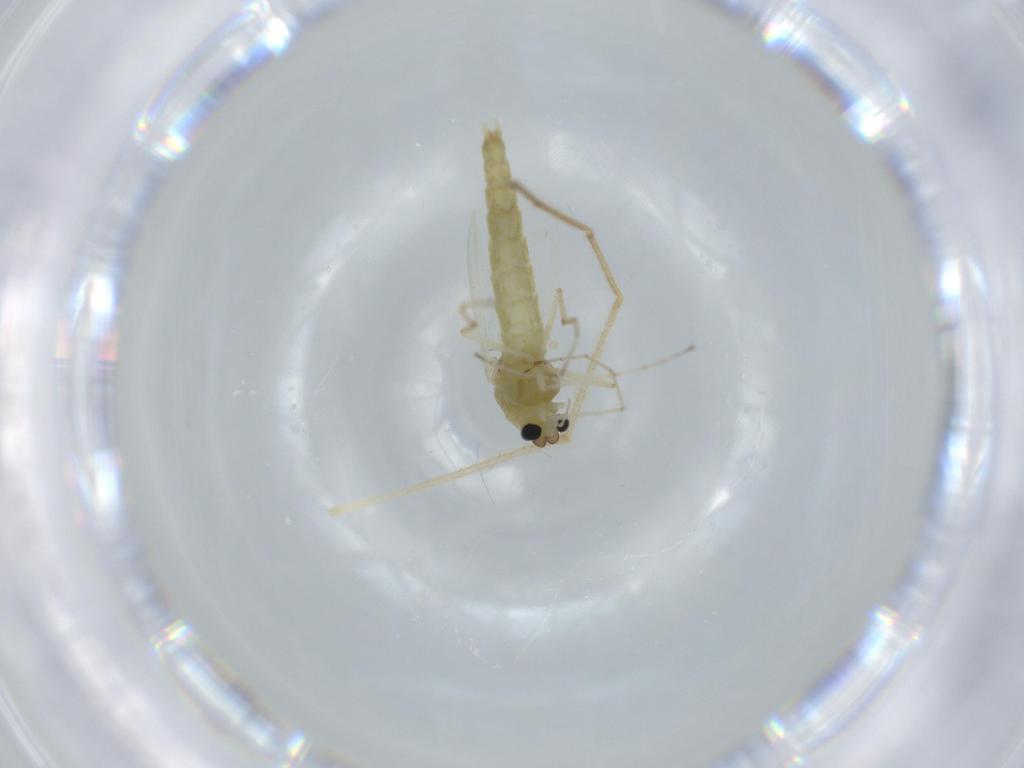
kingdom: Animalia
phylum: Arthropoda
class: Insecta
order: Diptera
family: Chironomidae
